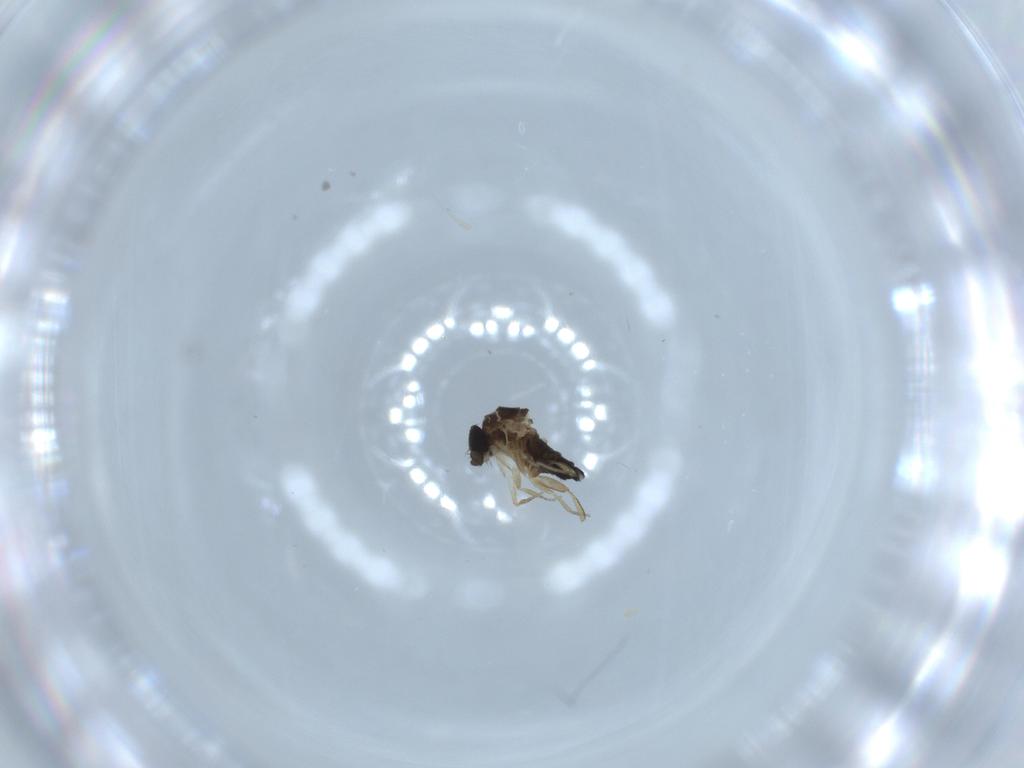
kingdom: Animalia
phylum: Arthropoda
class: Insecta
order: Diptera
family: Phoridae
